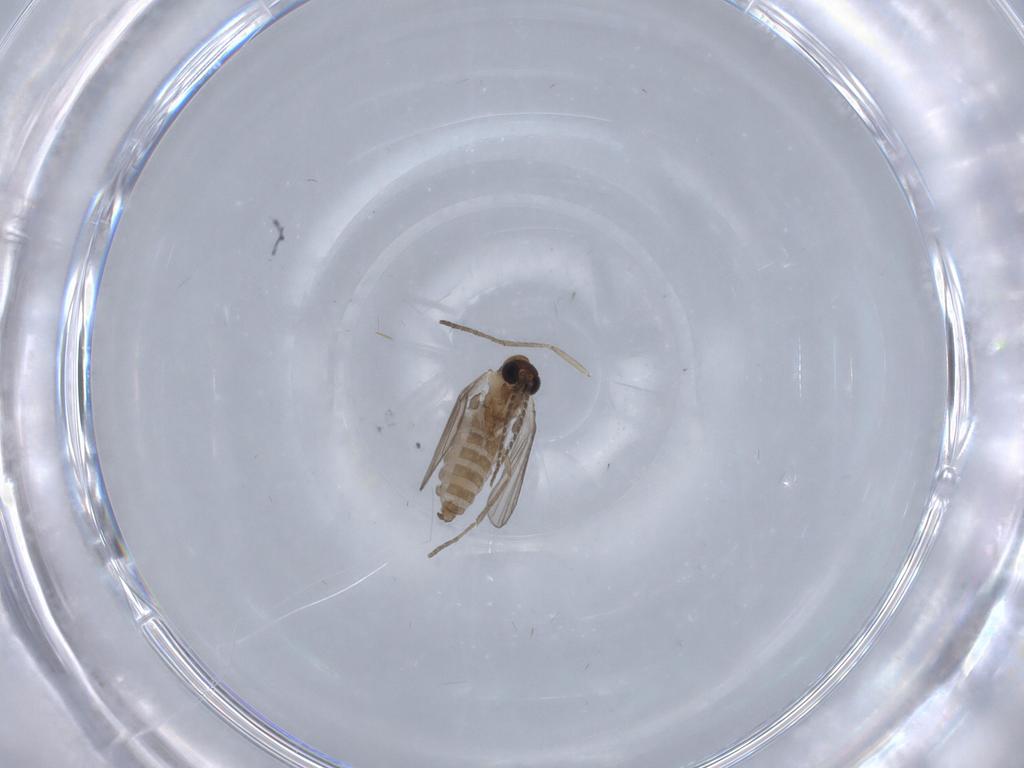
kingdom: Animalia
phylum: Arthropoda
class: Insecta
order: Diptera
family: Psychodidae
